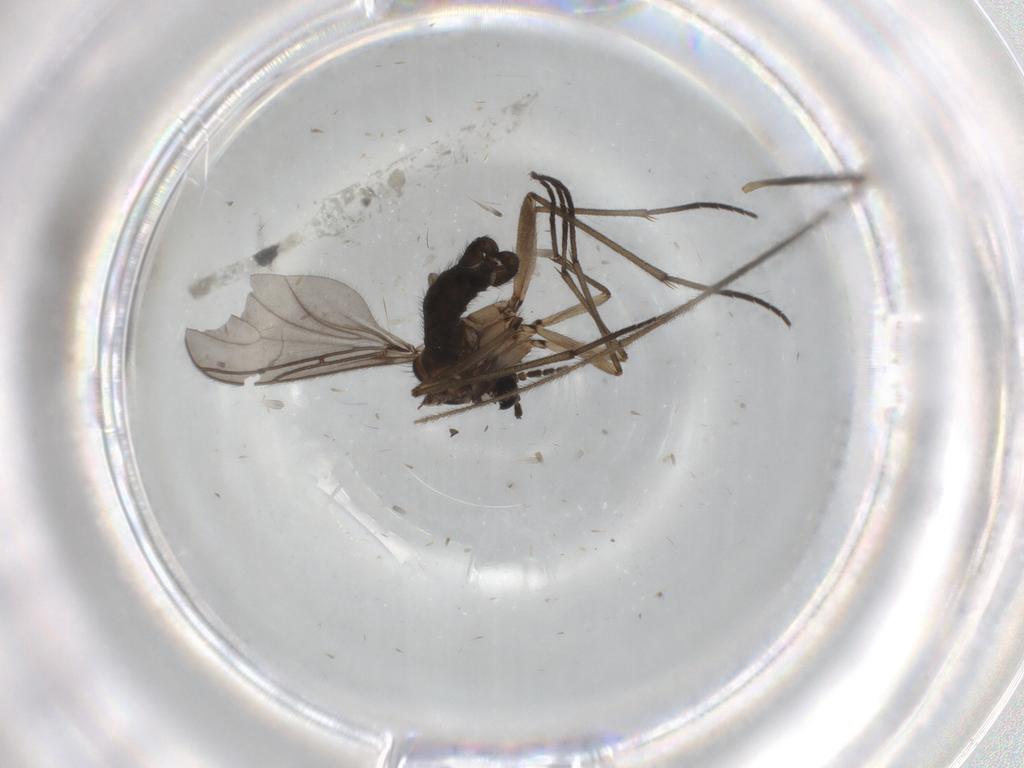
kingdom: Animalia
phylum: Arthropoda
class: Insecta
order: Diptera
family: Sciaridae
